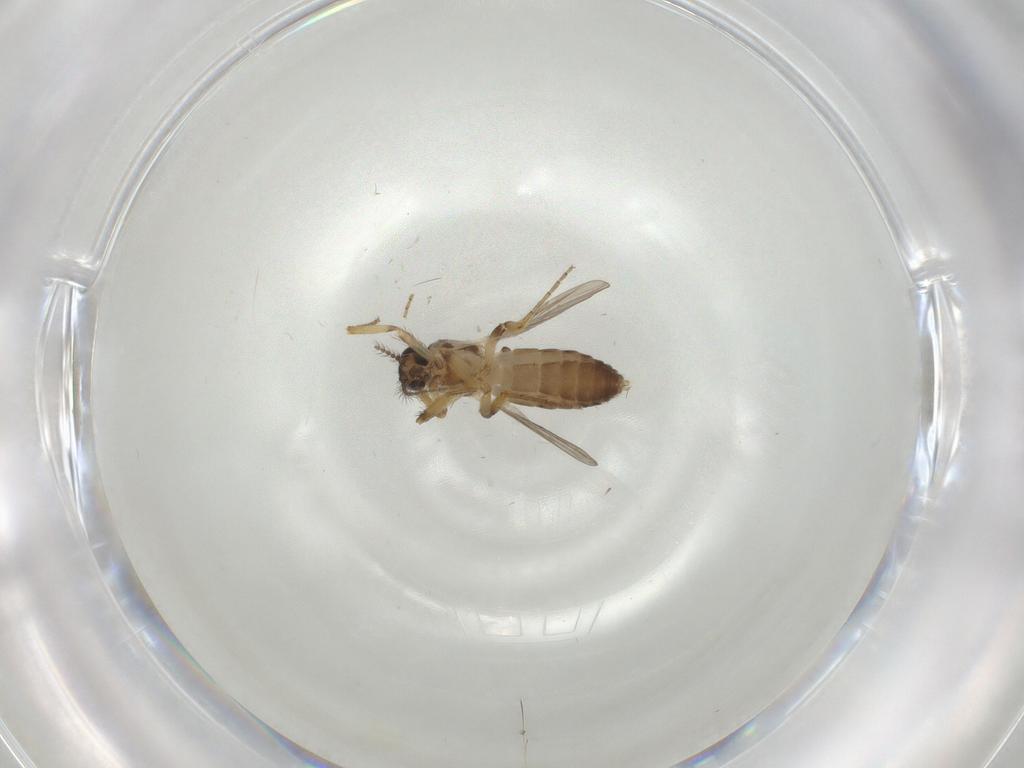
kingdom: Animalia
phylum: Arthropoda
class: Insecta
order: Diptera
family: Ceratopogonidae
